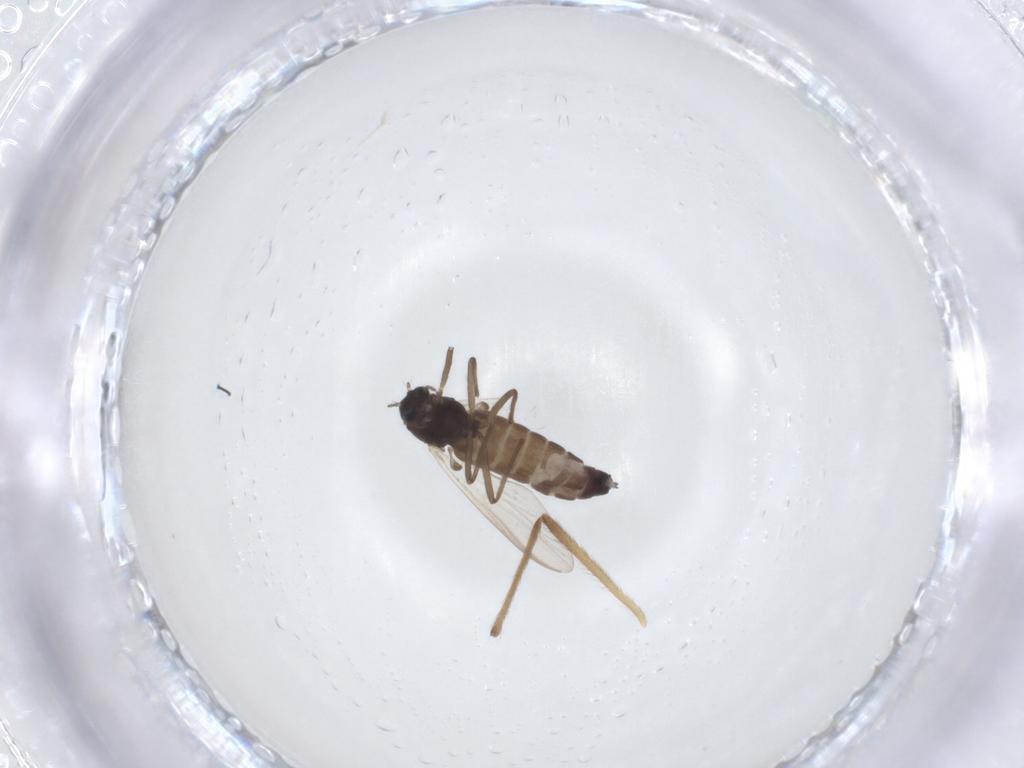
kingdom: Animalia
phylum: Arthropoda
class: Insecta
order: Diptera
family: Chironomidae
